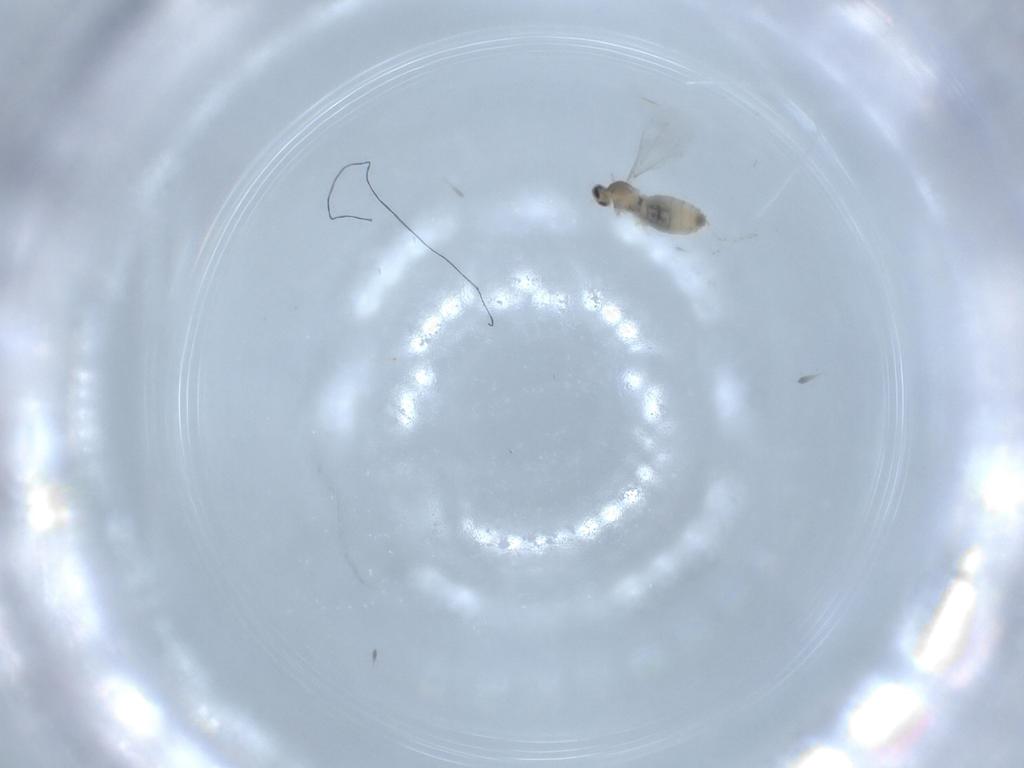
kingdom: Animalia
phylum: Arthropoda
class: Insecta
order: Diptera
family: Cecidomyiidae
